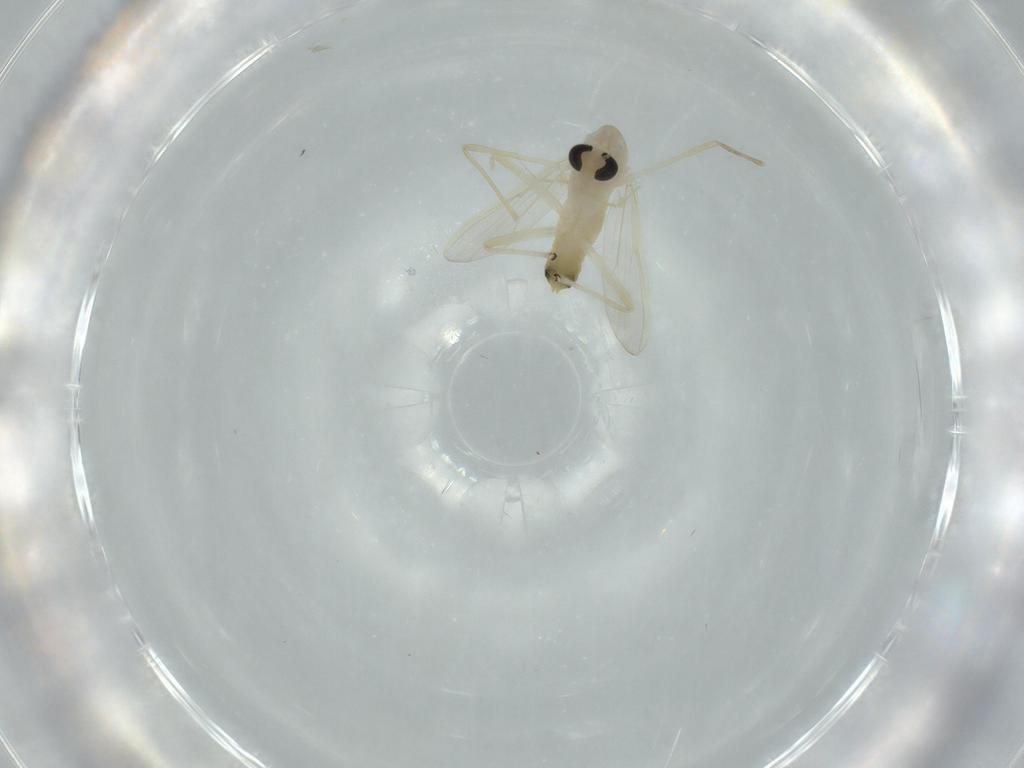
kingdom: Animalia
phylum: Arthropoda
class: Insecta
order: Diptera
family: Chironomidae
